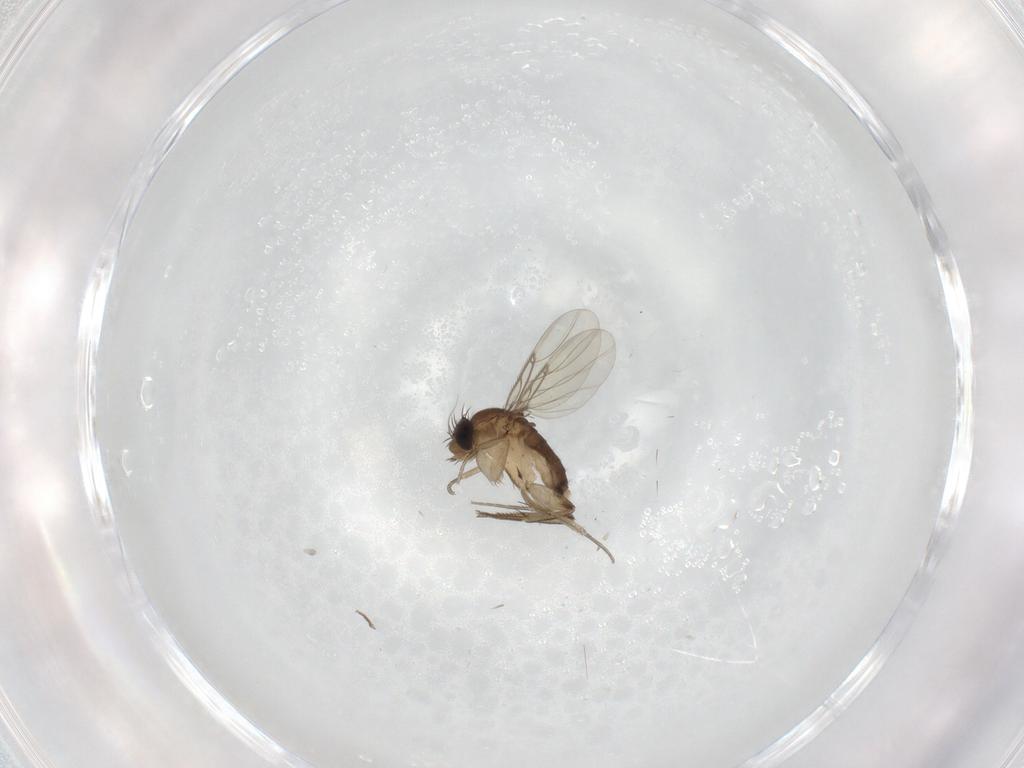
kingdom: Animalia
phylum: Arthropoda
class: Insecta
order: Diptera
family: Phoridae
